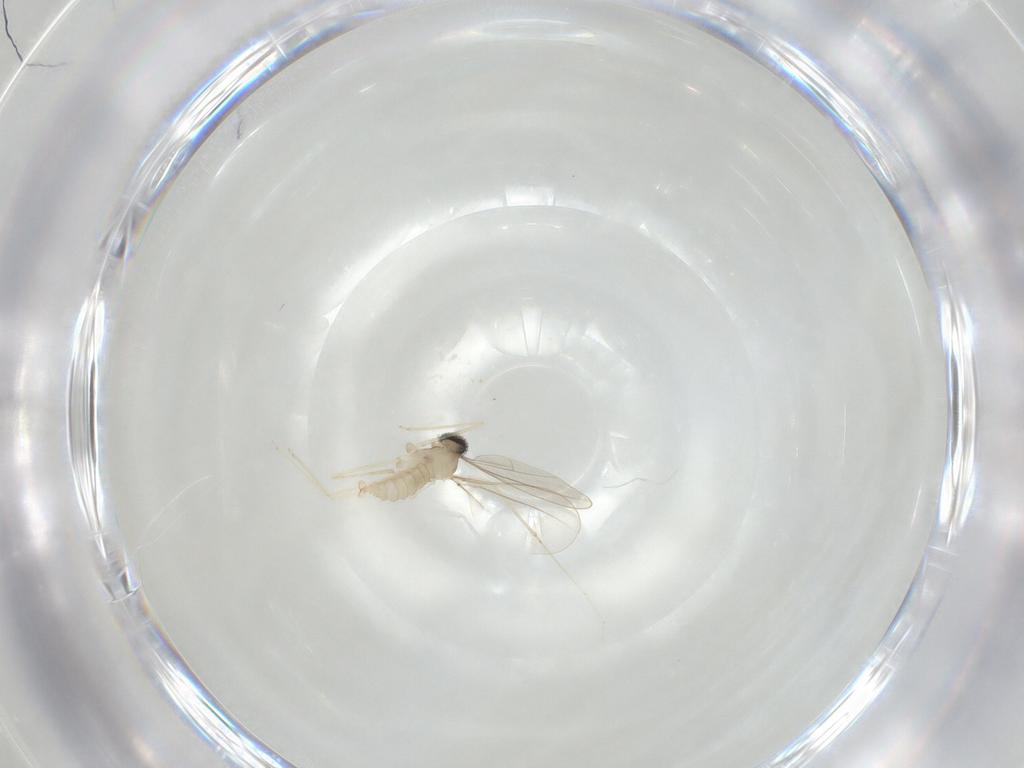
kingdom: Animalia
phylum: Arthropoda
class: Insecta
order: Diptera
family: Cecidomyiidae
